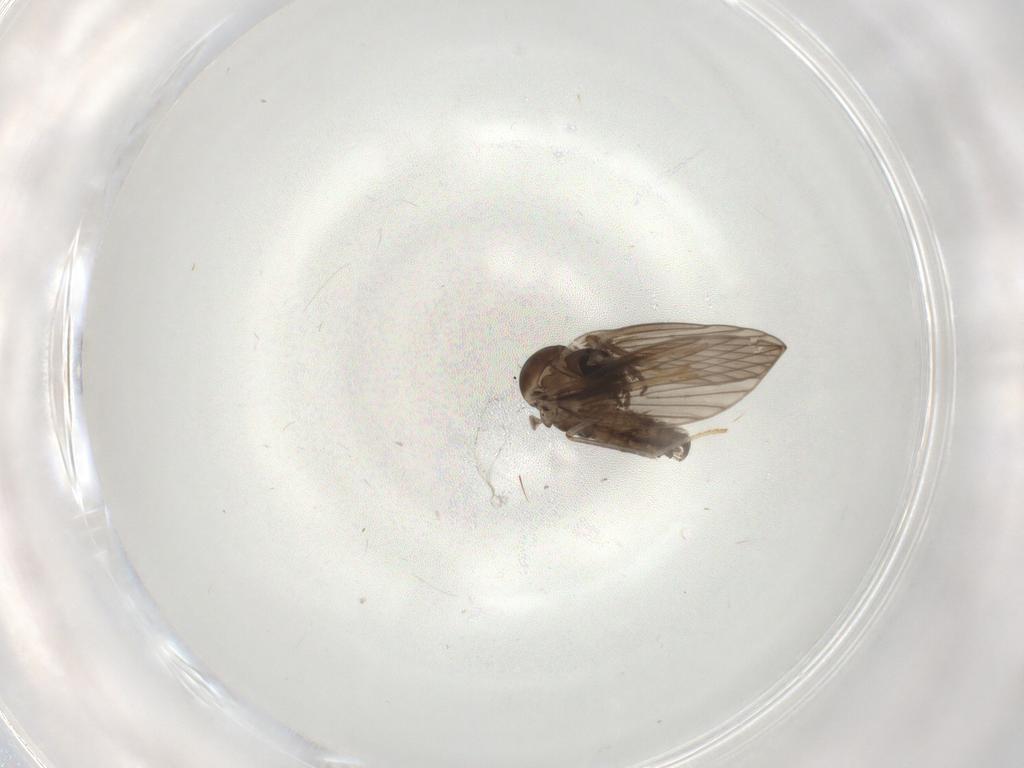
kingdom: Animalia
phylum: Arthropoda
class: Insecta
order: Diptera
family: Psychodidae
